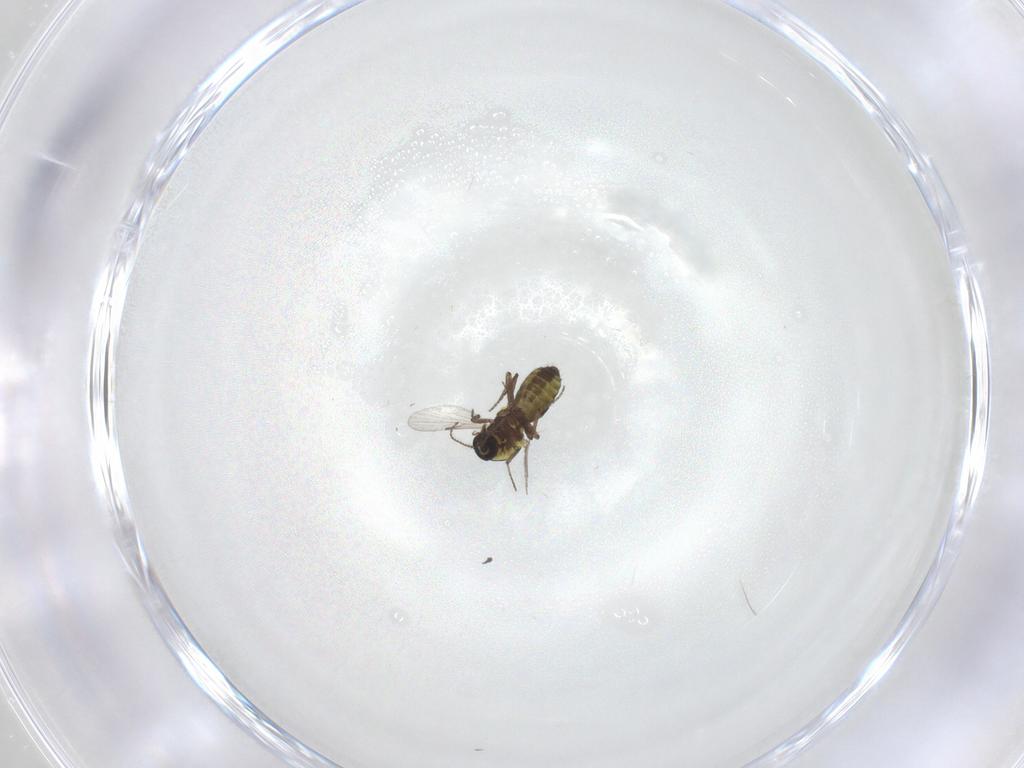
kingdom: Animalia
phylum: Arthropoda
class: Insecta
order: Diptera
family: Ceratopogonidae
